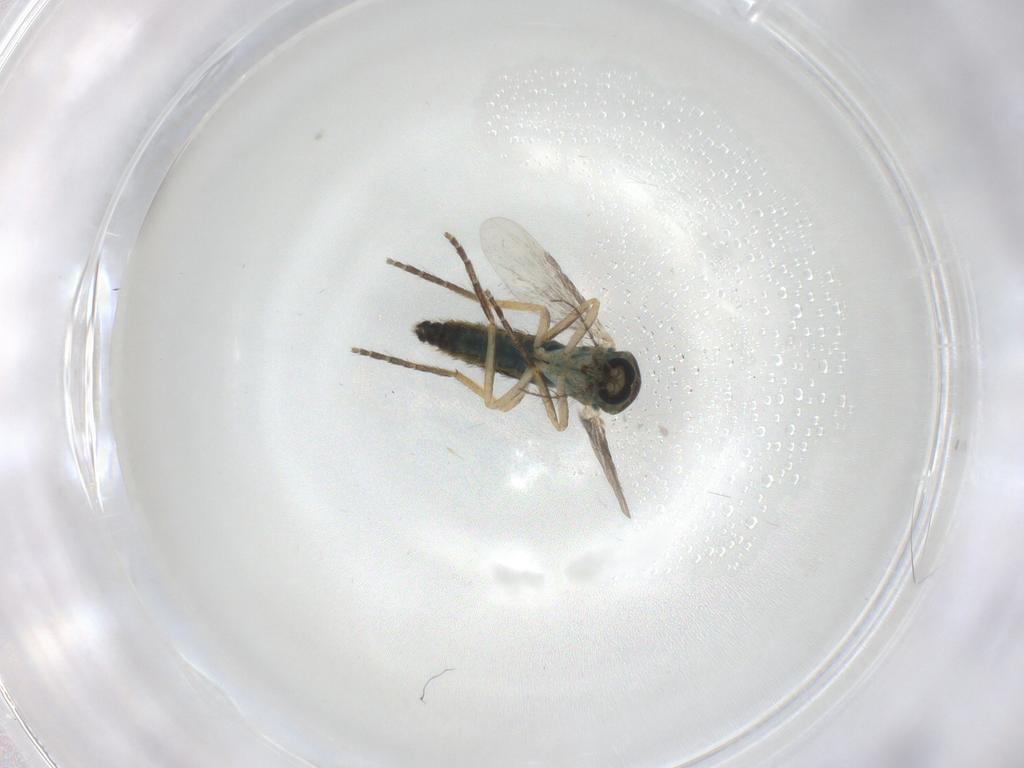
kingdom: Animalia
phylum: Arthropoda
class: Insecta
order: Diptera
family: Ceratopogonidae
